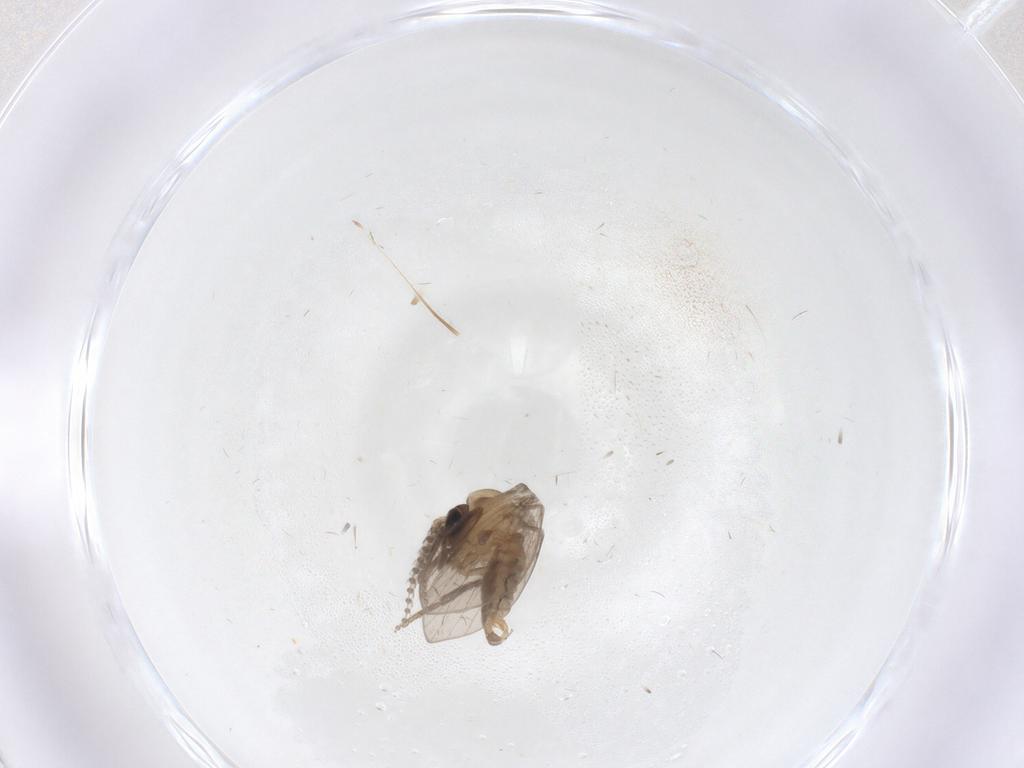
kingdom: Animalia
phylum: Arthropoda
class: Insecta
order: Diptera
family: Psychodidae
